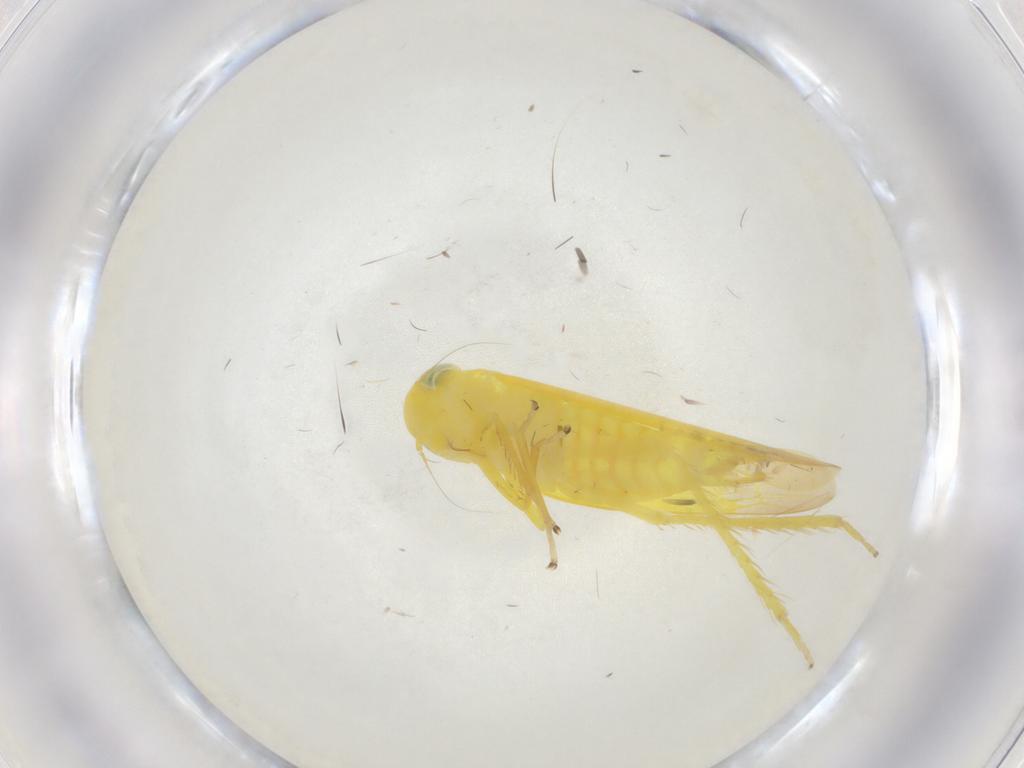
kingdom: Animalia
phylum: Arthropoda
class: Insecta
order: Hemiptera
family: Cicadellidae
